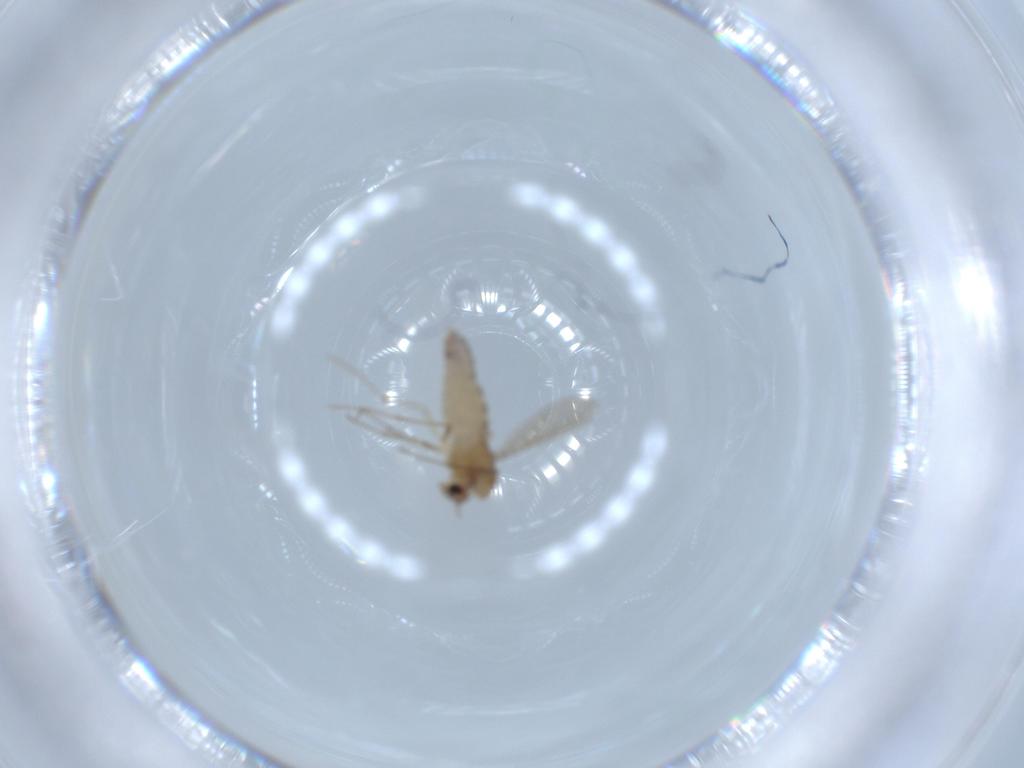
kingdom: Animalia
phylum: Arthropoda
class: Insecta
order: Diptera
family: Chironomidae
